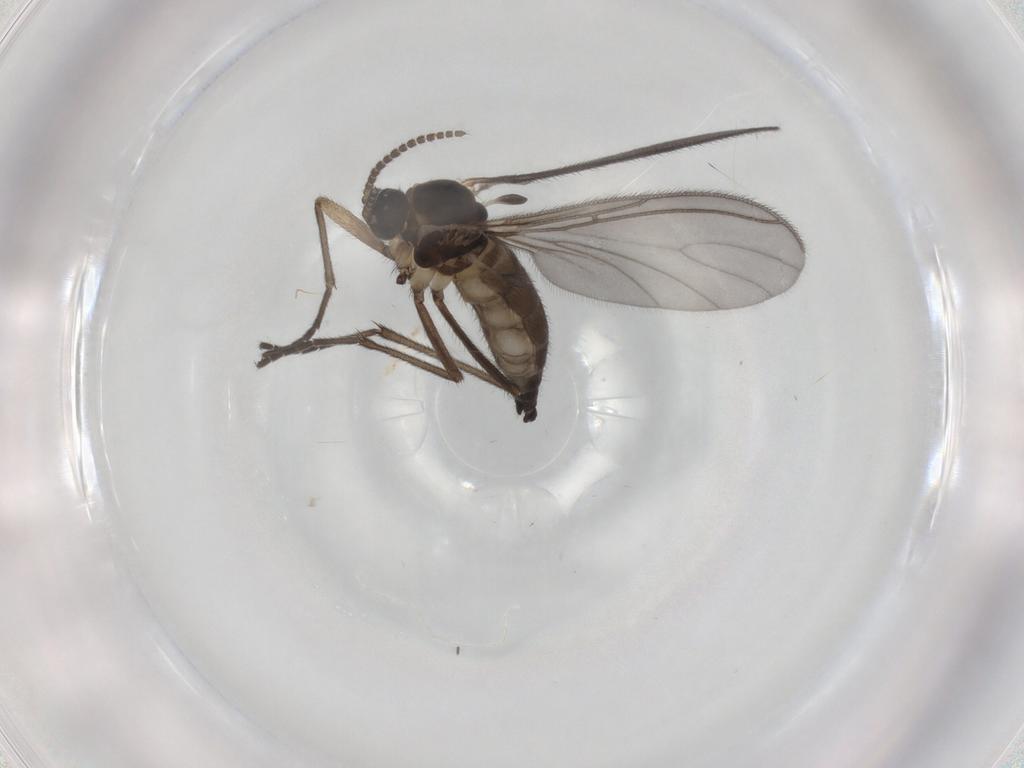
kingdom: Animalia
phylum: Arthropoda
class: Insecta
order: Diptera
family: Sciaridae
